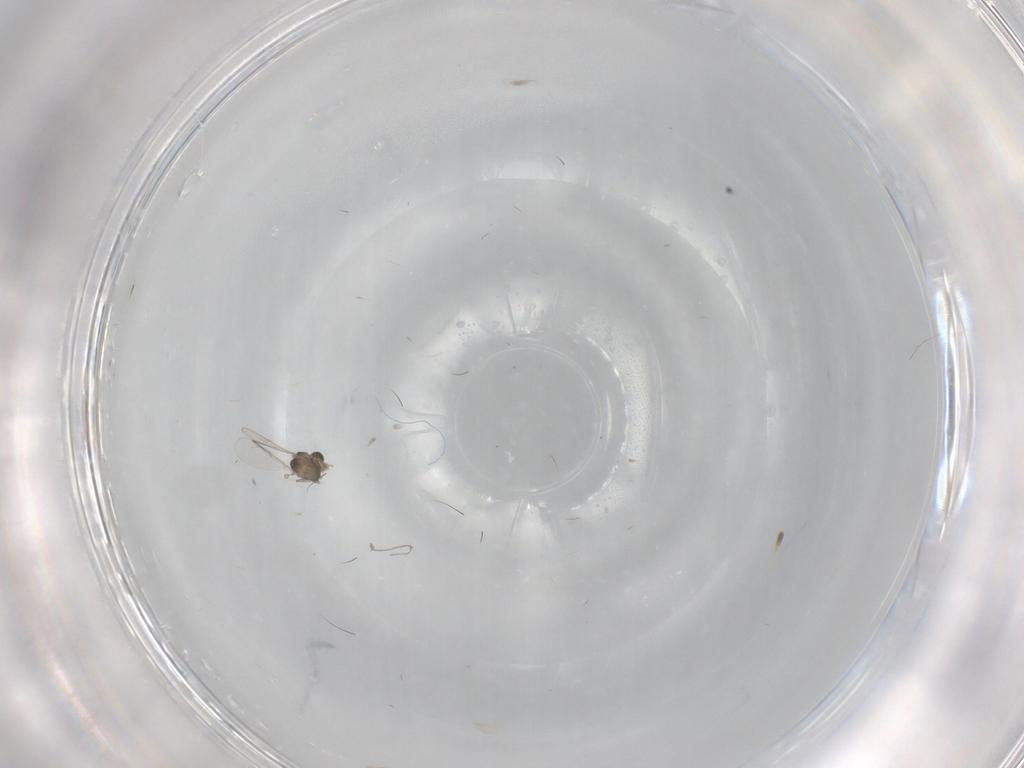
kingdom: Animalia
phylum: Arthropoda
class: Insecta
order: Diptera
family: Chironomidae
